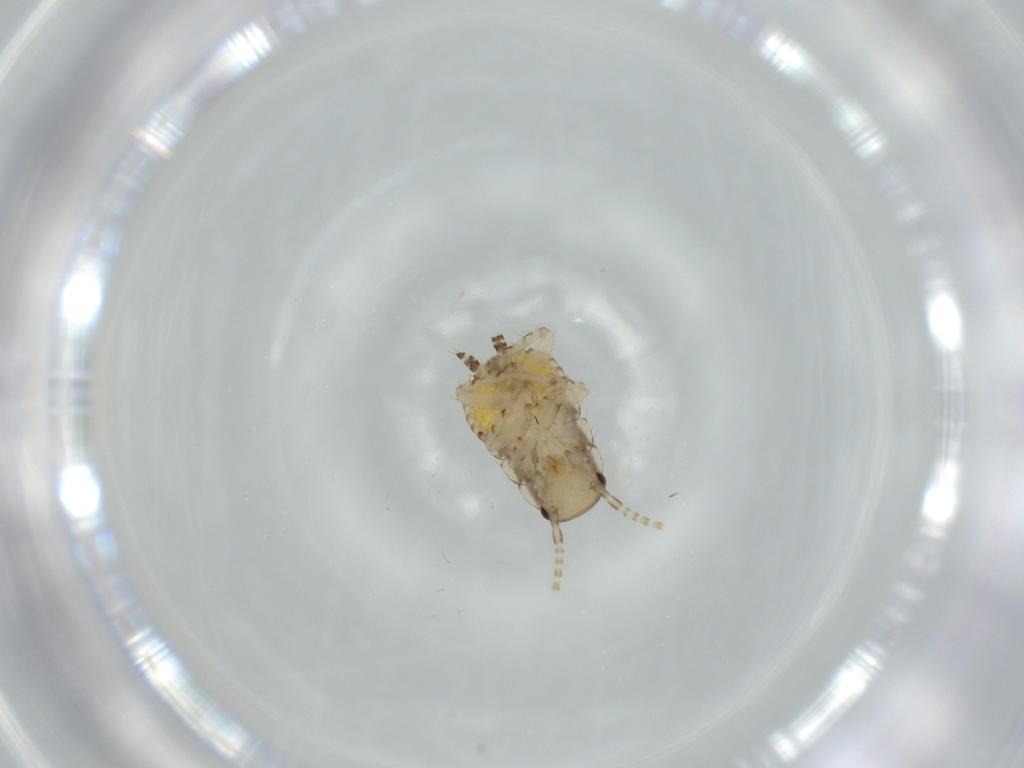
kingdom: Animalia
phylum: Arthropoda
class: Insecta
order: Blattodea
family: Ectobiidae
